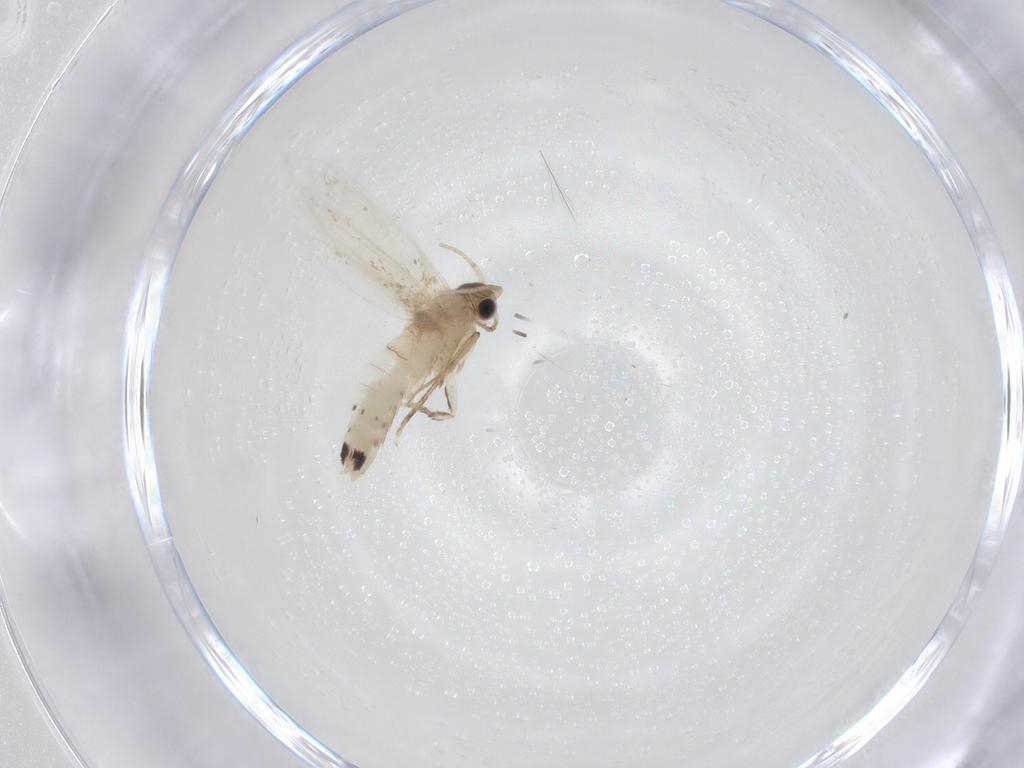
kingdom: Animalia
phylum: Arthropoda
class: Insecta
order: Lepidoptera
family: Dryadaulidae
